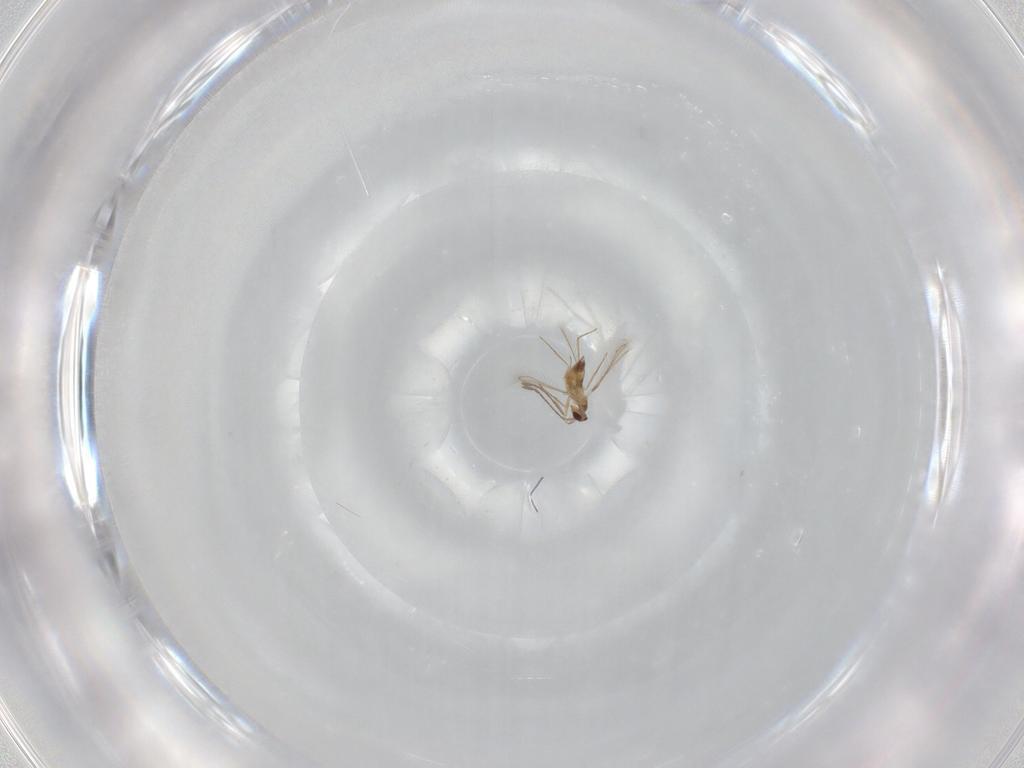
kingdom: Animalia
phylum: Arthropoda
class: Insecta
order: Hymenoptera
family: Mymaridae
